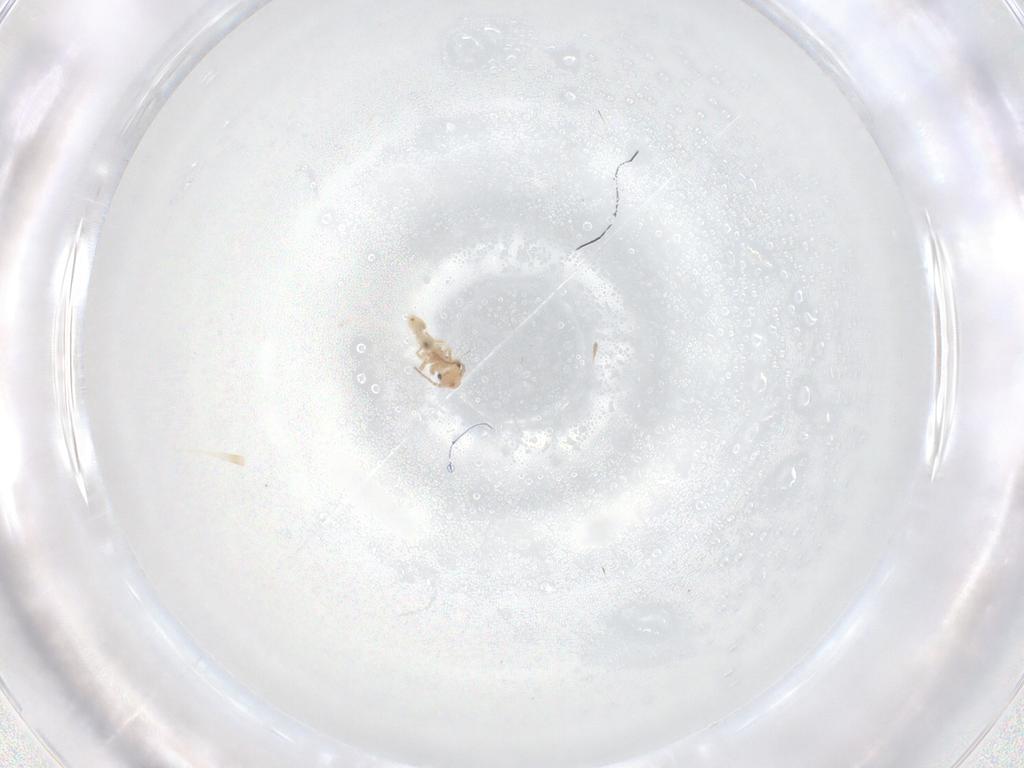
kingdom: Animalia
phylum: Arthropoda
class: Insecta
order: Psocodea
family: Lepidopsocidae
